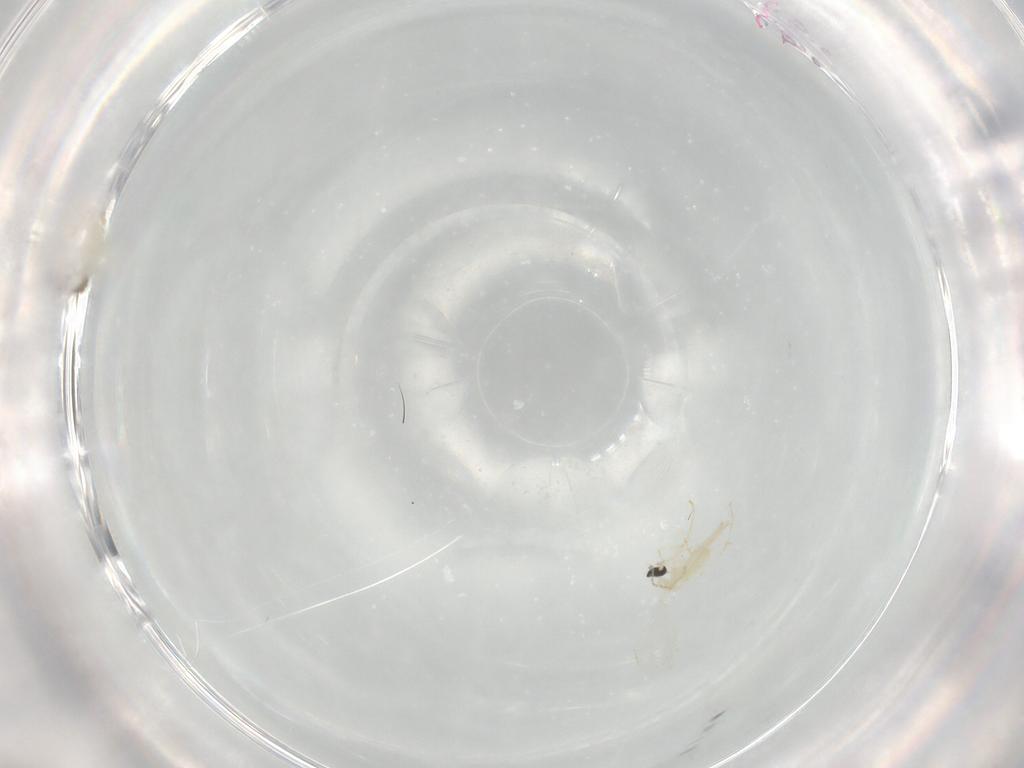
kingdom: Animalia
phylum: Arthropoda
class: Insecta
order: Diptera
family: Cecidomyiidae
